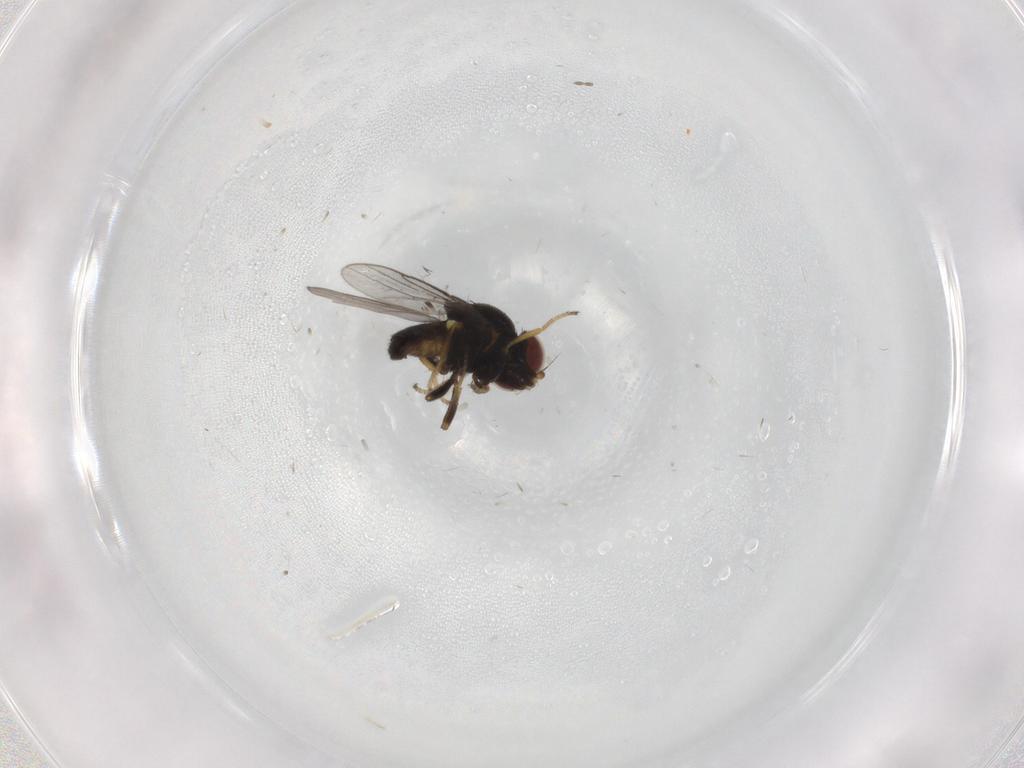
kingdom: Animalia
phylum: Arthropoda
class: Insecta
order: Diptera
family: Chloropidae
